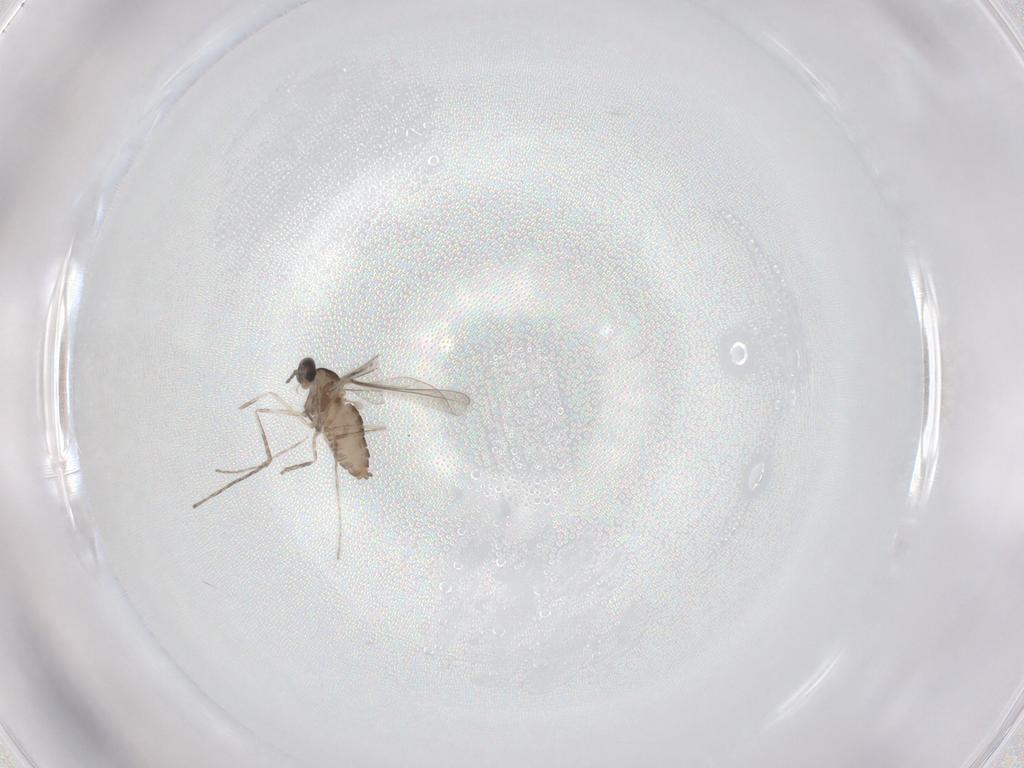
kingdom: Animalia
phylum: Arthropoda
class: Insecta
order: Diptera
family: Cecidomyiidae
